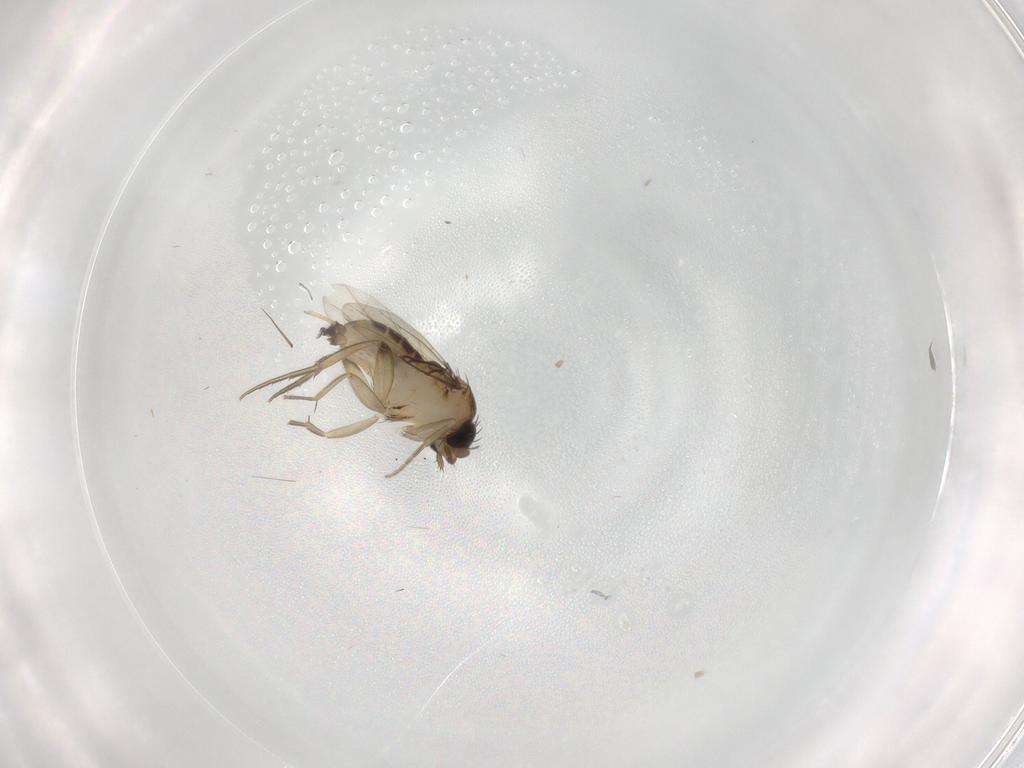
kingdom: Animalia
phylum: Arthropoda
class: Insecta
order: Diptera
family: Phoridae
